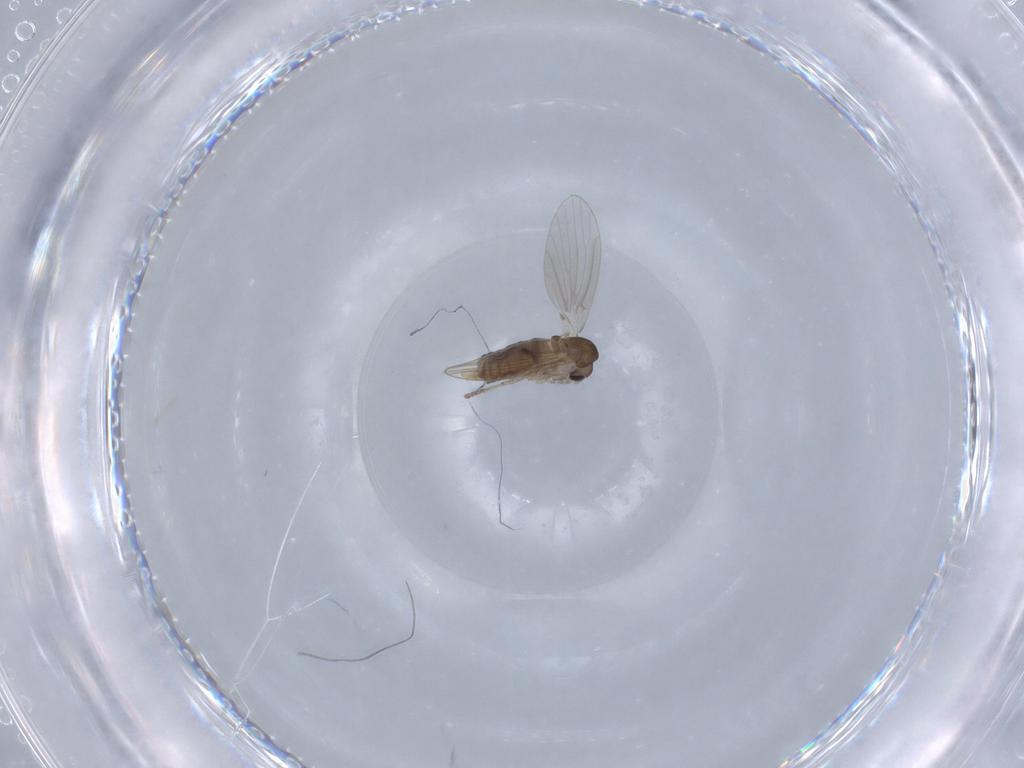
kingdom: Animalia
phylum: Arthropoda
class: Insecta
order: Diptera
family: Psychodidae
